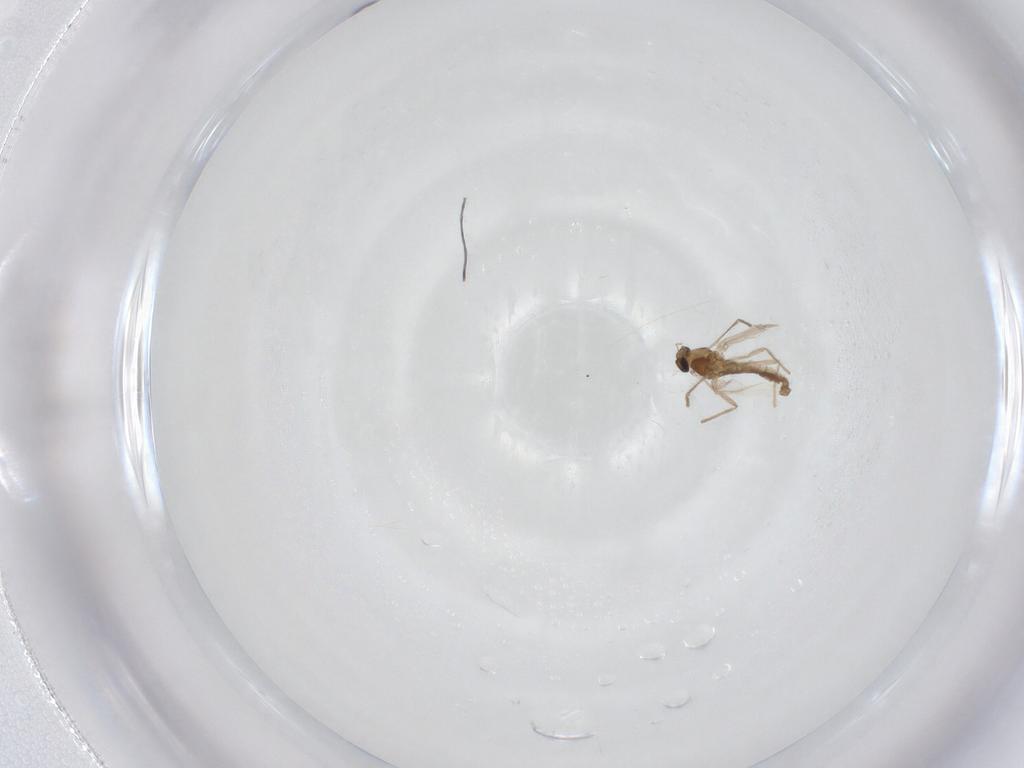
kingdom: Animalia
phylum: Arthropoda
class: Insecta
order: Diptera
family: Chironomidae
